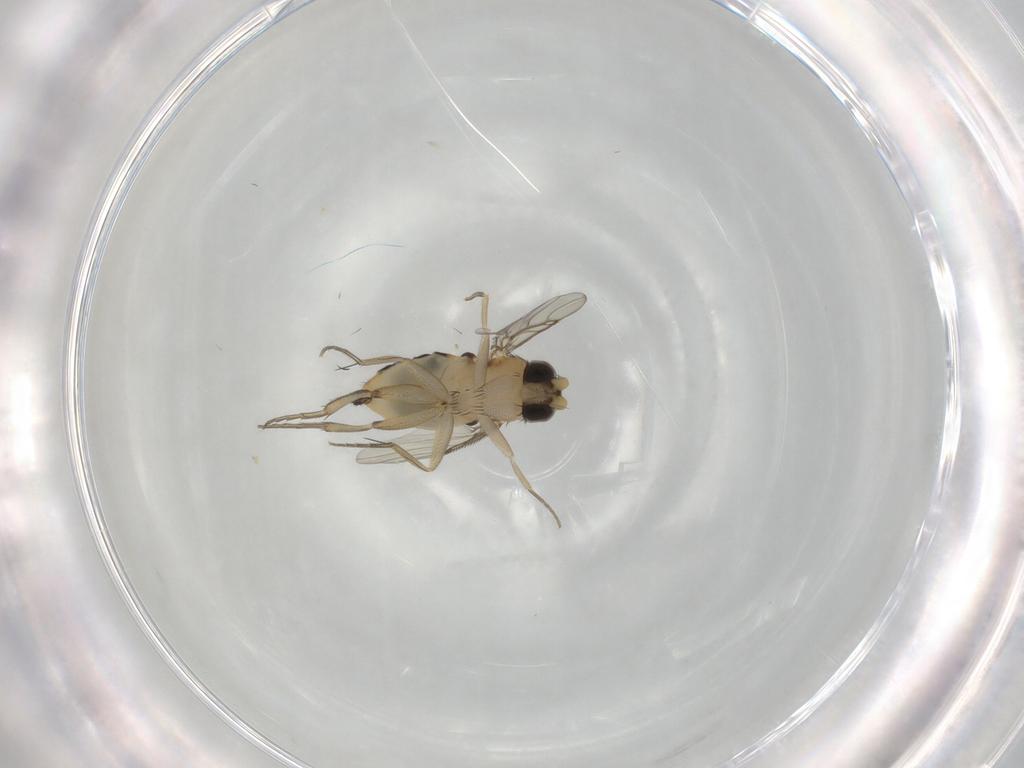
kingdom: Animalia
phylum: Arthropoda
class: Insecta
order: Diptera
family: Phoridae
